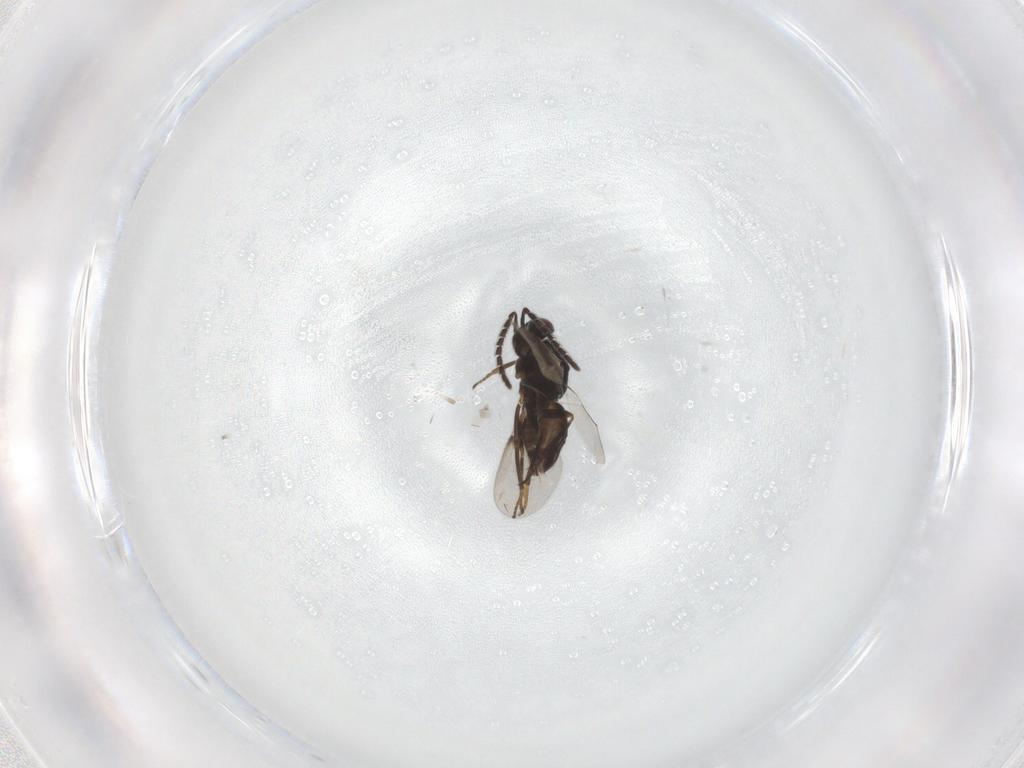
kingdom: Animalia
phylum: Arthropoda
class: Insecta
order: Hymenoptera
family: Encyrtidae
